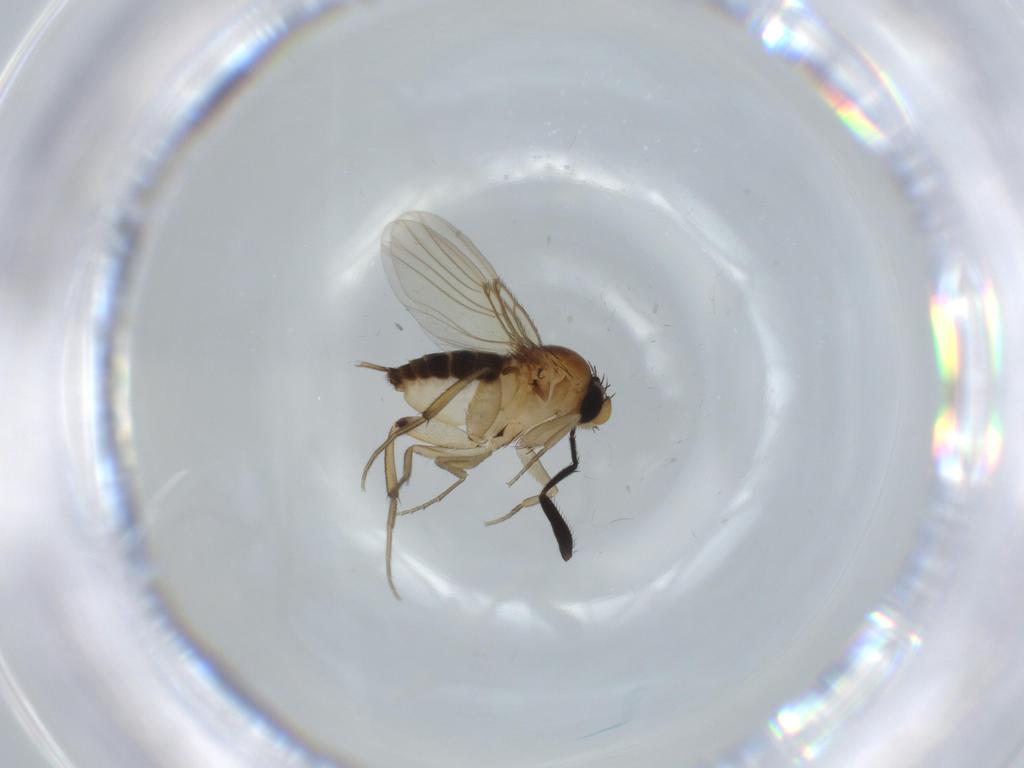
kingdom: Animalia
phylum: Arthropoda
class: Insecta
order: Diptera
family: Milichiidae
